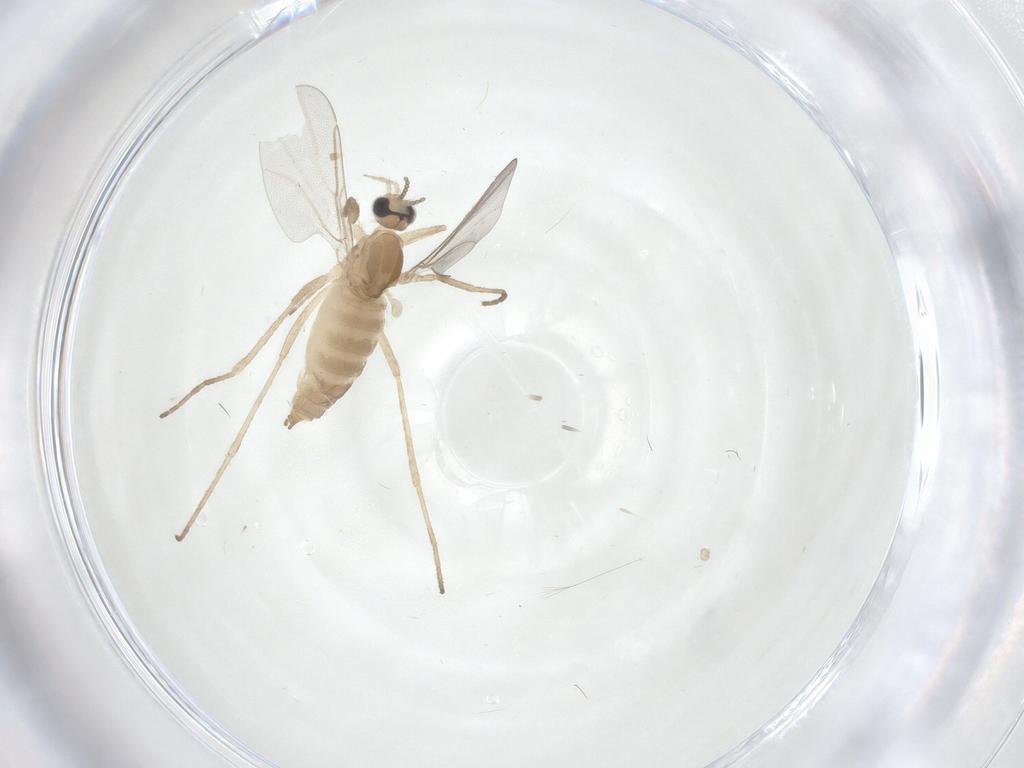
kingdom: Animalia
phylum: Arthropoda
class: Insecta
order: Diptera
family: Cecidomyiidae
